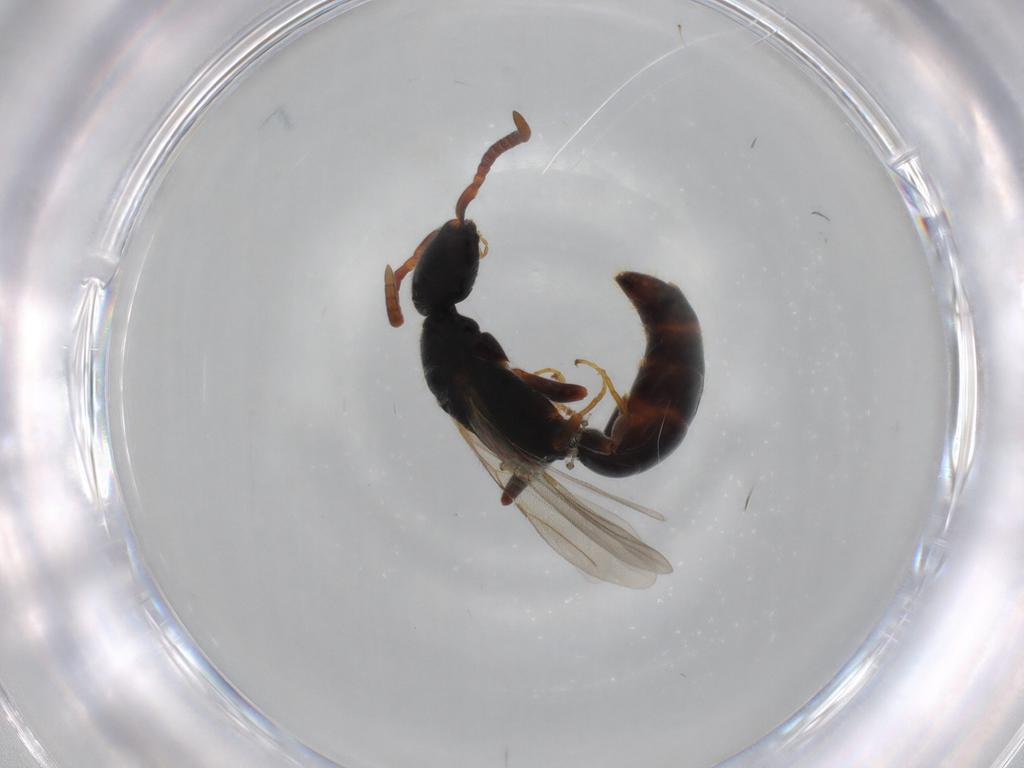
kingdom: Animalia
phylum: Arthropoda
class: Insecta
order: Hymenoptera
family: Bethylidae
